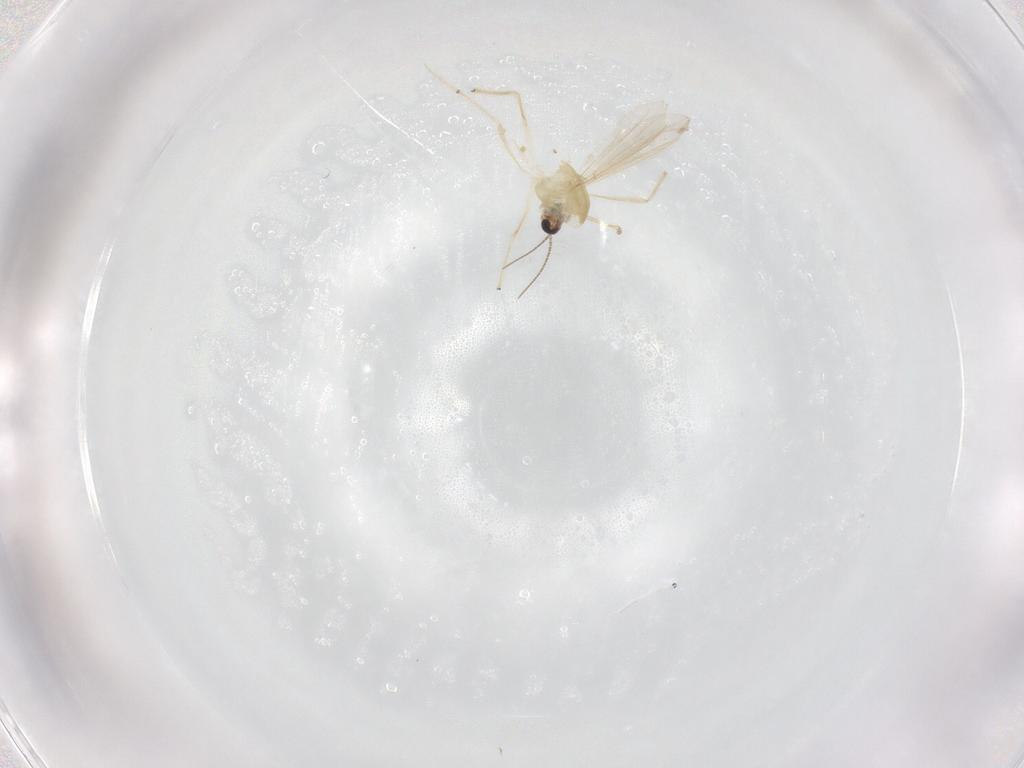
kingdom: Animalia
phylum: Arthropoda
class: Insecta
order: Diptera
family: Chironomidae
